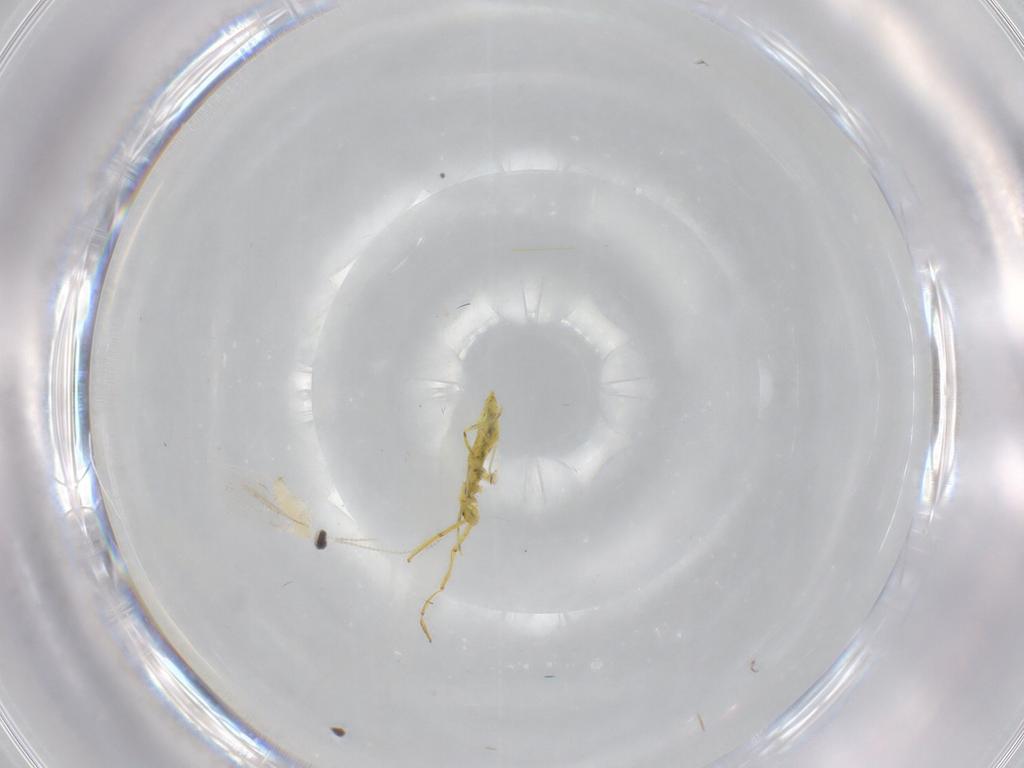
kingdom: Animalia
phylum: Arthropoda
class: Insecta
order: Diptera
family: Cecidomyiidae
